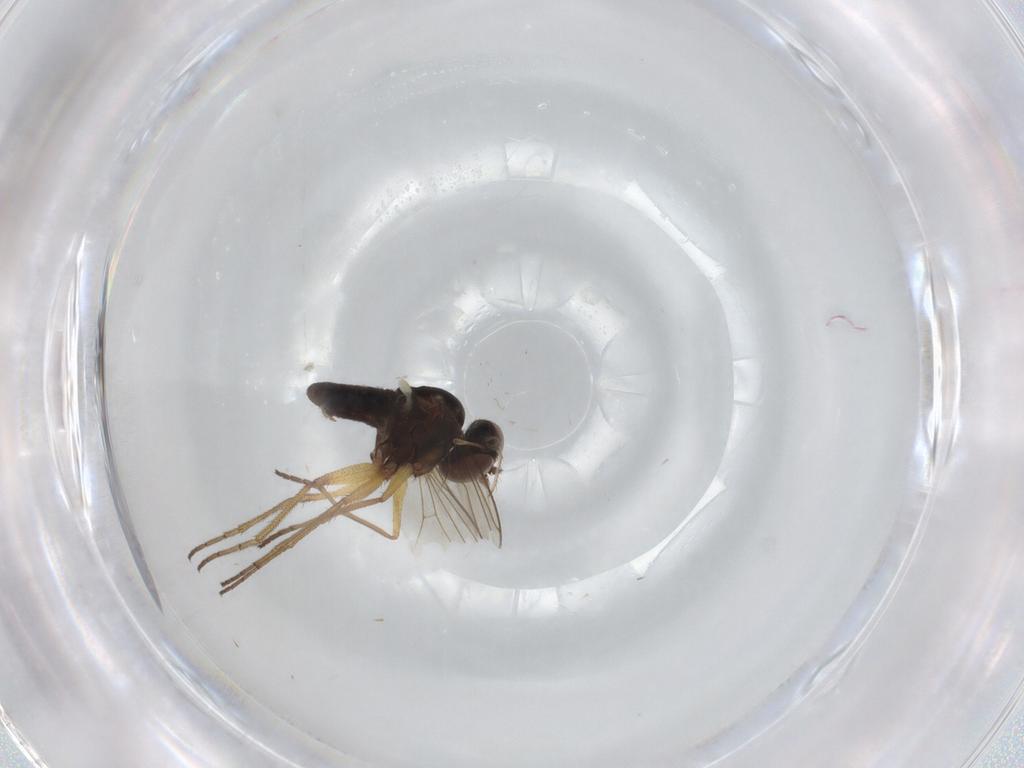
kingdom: Animalia
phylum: Arthropoda
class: Insecta
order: Diptera
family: Dolichopodidae
